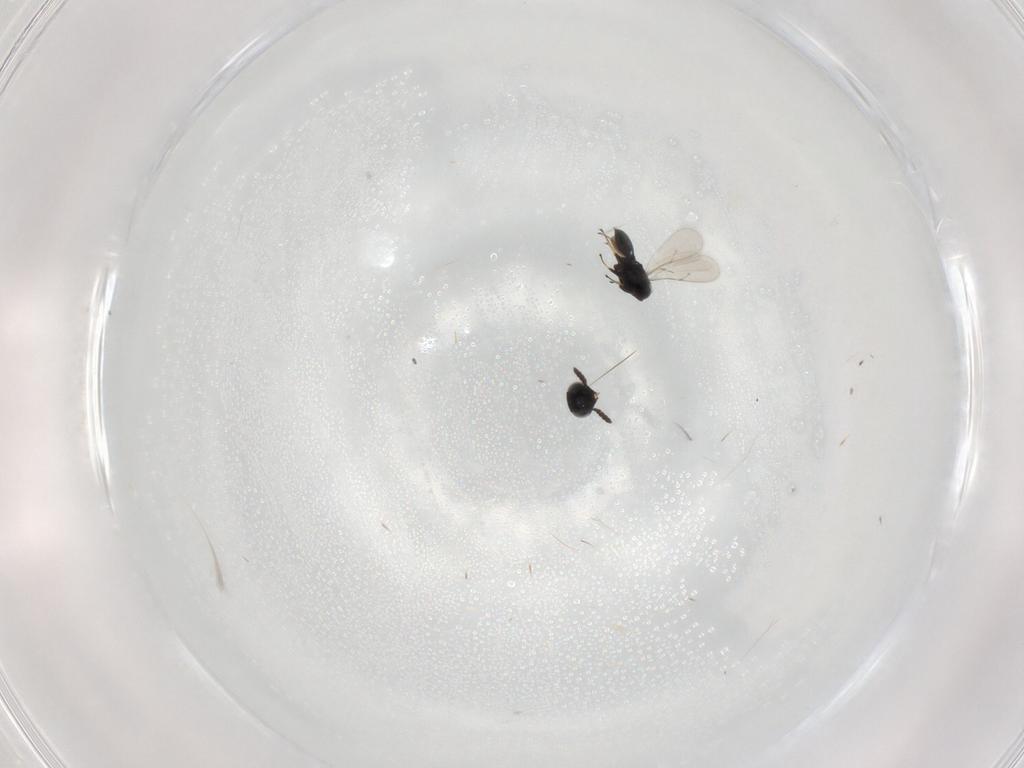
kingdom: Animalia
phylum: Arthropoda
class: Insecta
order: Hymenoptera
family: Scelionidae
